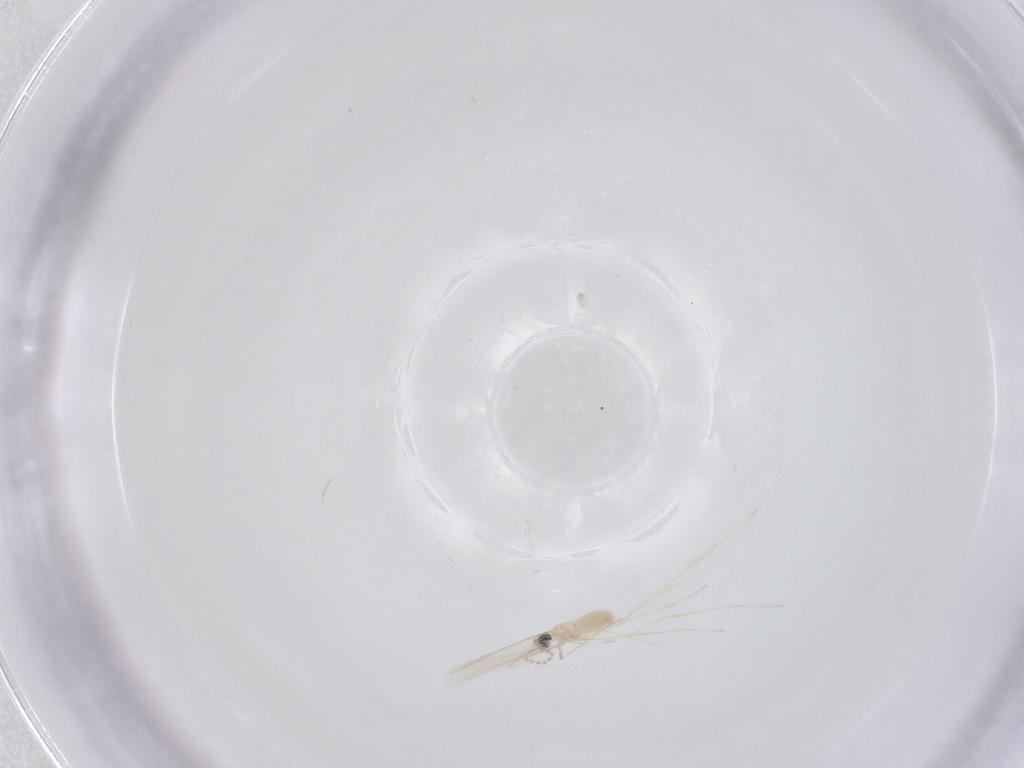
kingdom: Animalia
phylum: Arthropoda
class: Insecta
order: Diptera
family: Cecidomyiidae
